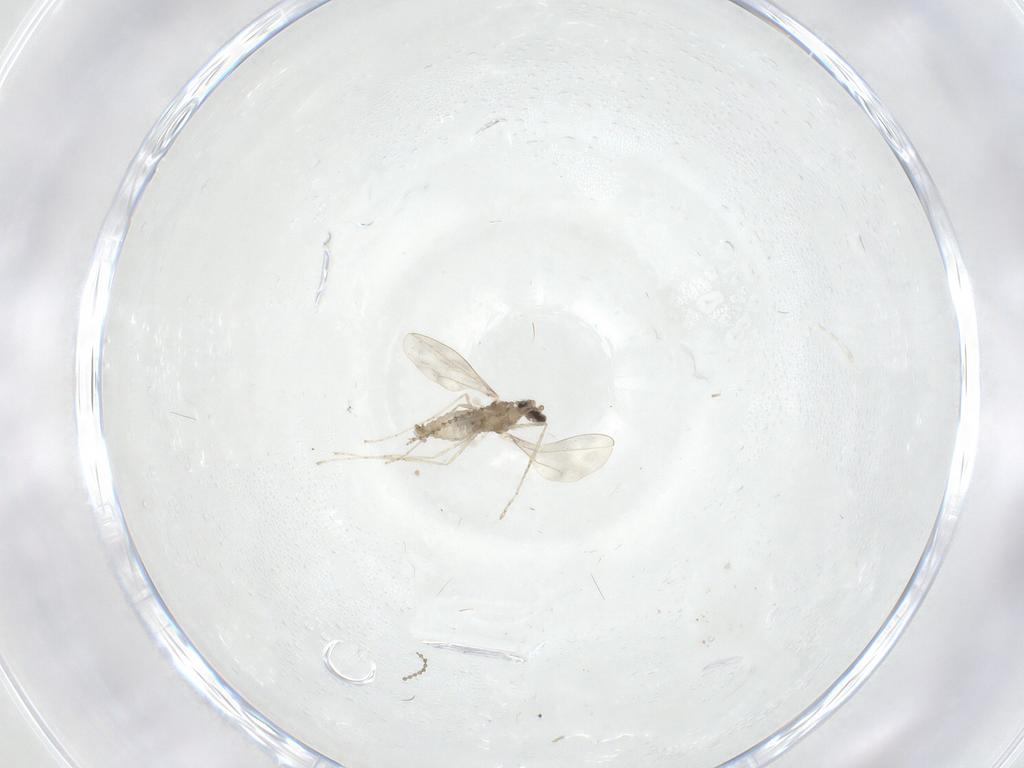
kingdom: Animalia
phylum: Arthropoda
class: Insecta
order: Diptera
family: Cecidomyiidae
